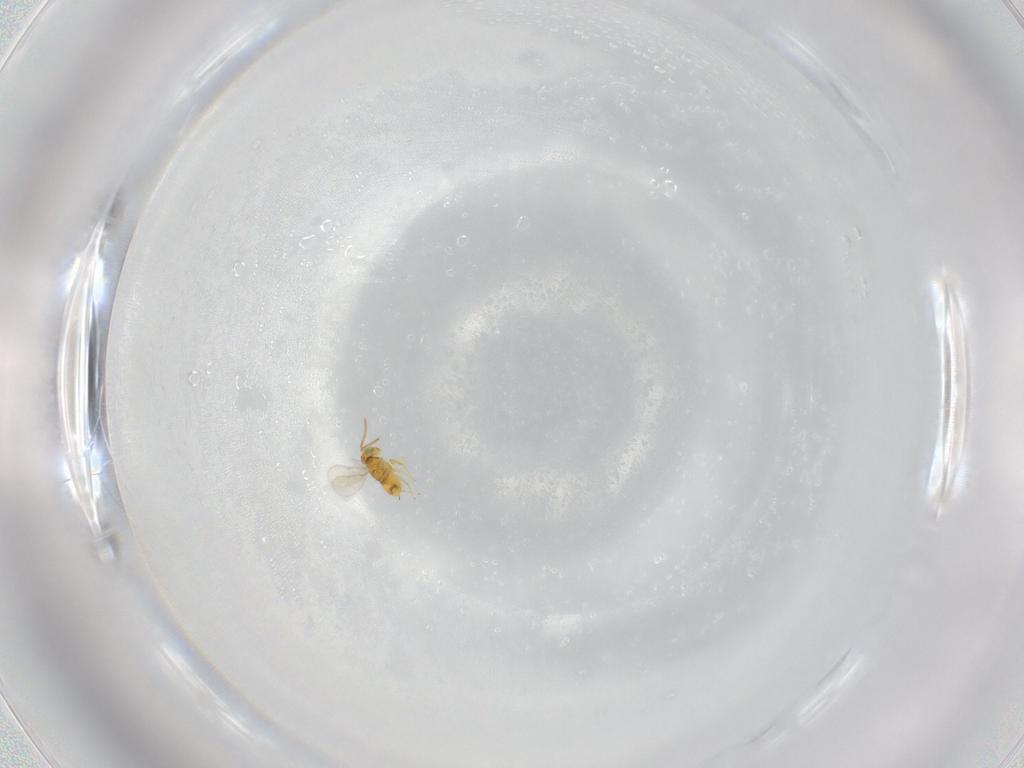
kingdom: Animalia
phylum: Arthropoda
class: Insecta
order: Hymenoptera
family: Aphelinidae
